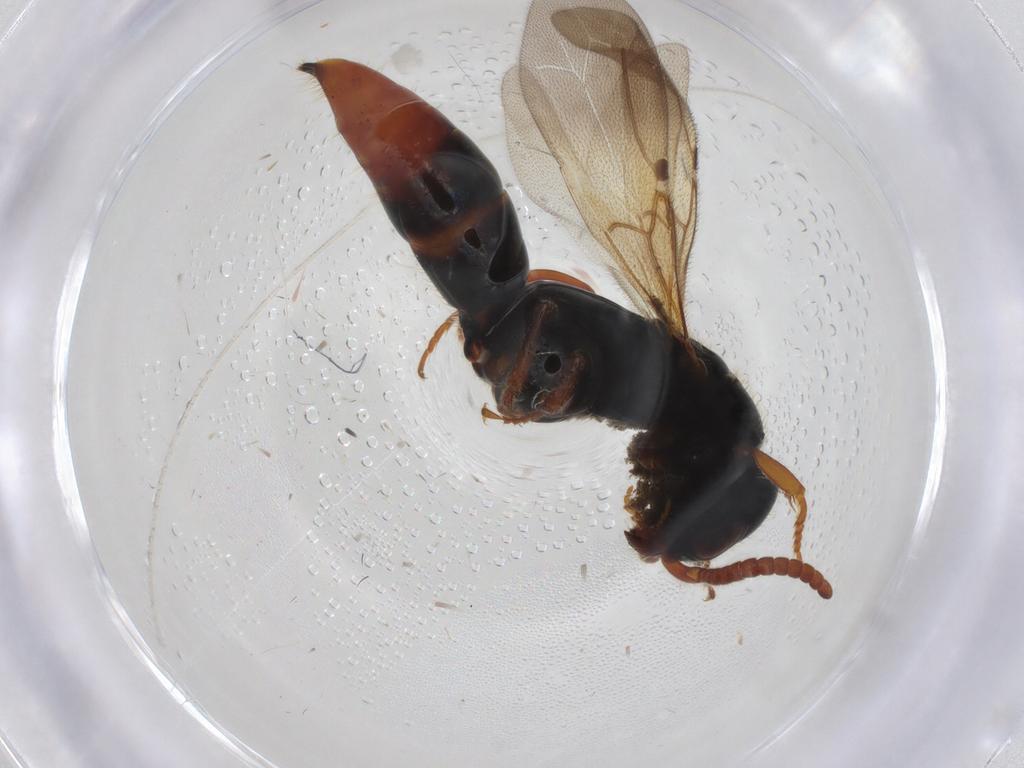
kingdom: Animalia
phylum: Arthropoda
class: Insecta
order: Hymenoptera
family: Bethylidae
